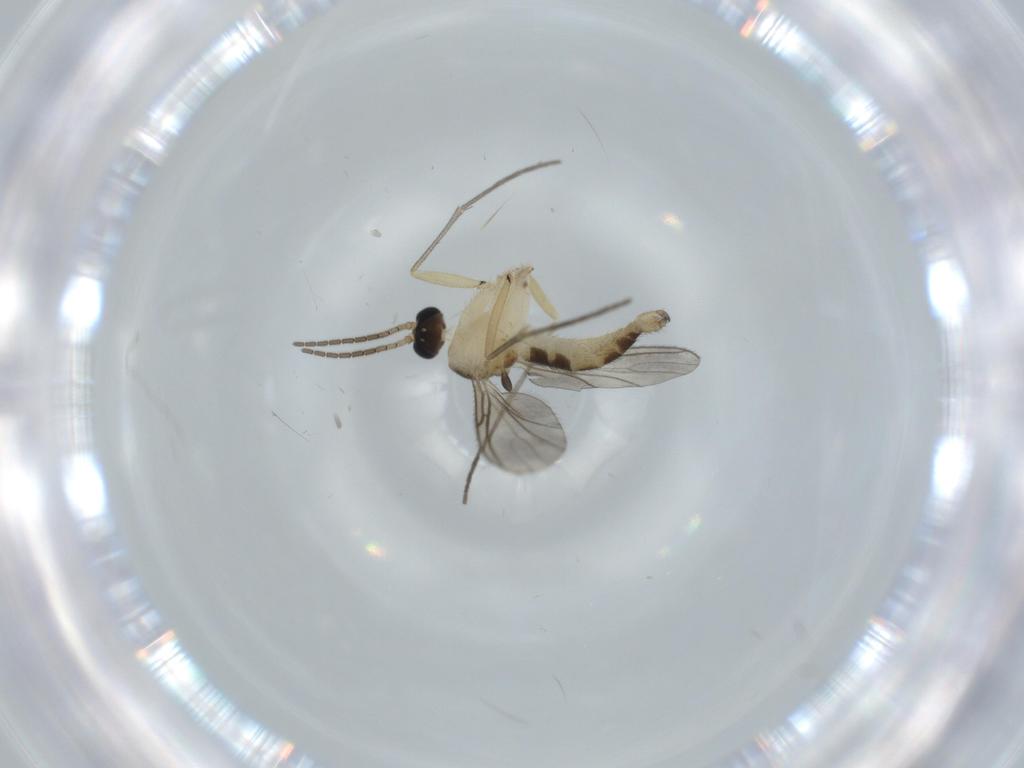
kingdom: Animalia
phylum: Arthropoda
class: Insecta
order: Diptera
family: Sciaridae
